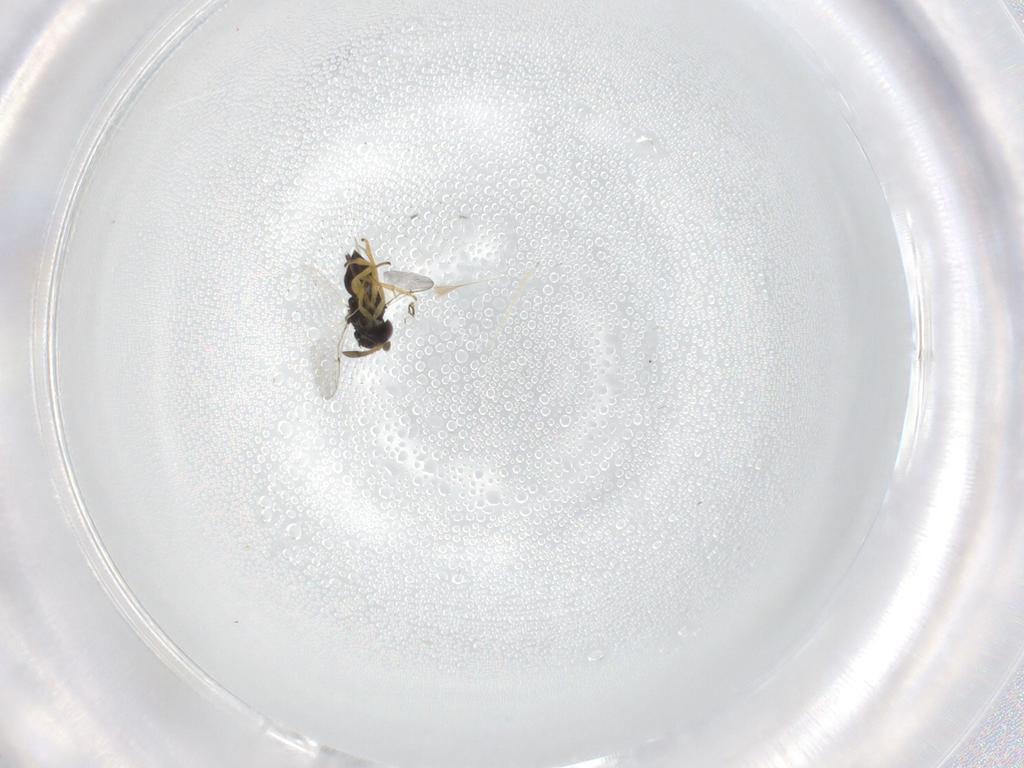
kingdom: Animalia
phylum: Arthropoda
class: Insecta
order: Hymenoptera
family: Encyrtidae
